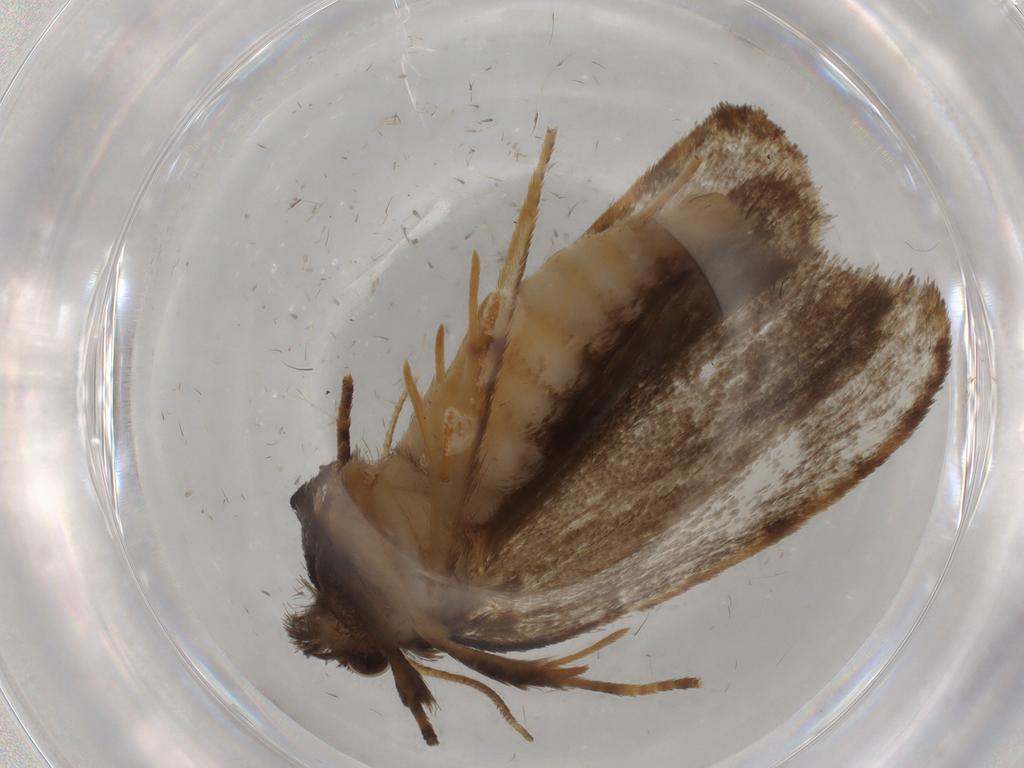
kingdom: Animalia
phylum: Arthropoda
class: Insecta
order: Lepidoptera
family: Tineidae
